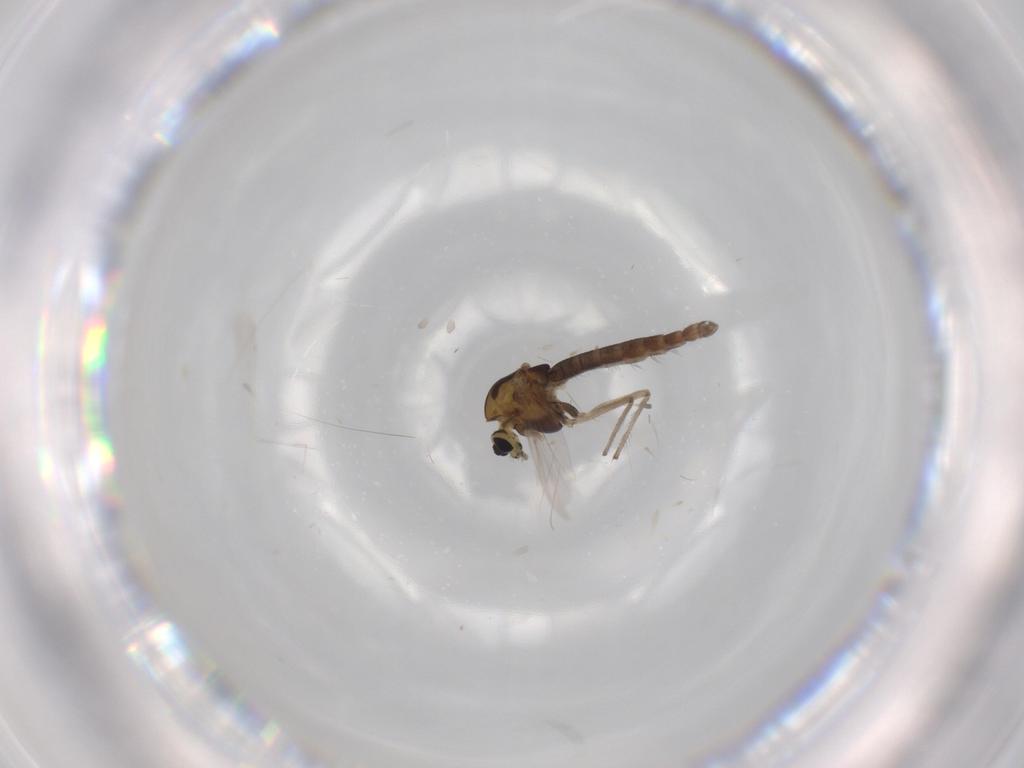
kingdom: Animalia
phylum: Arthropoda
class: Insecta
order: Diptera
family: Chironomidae
